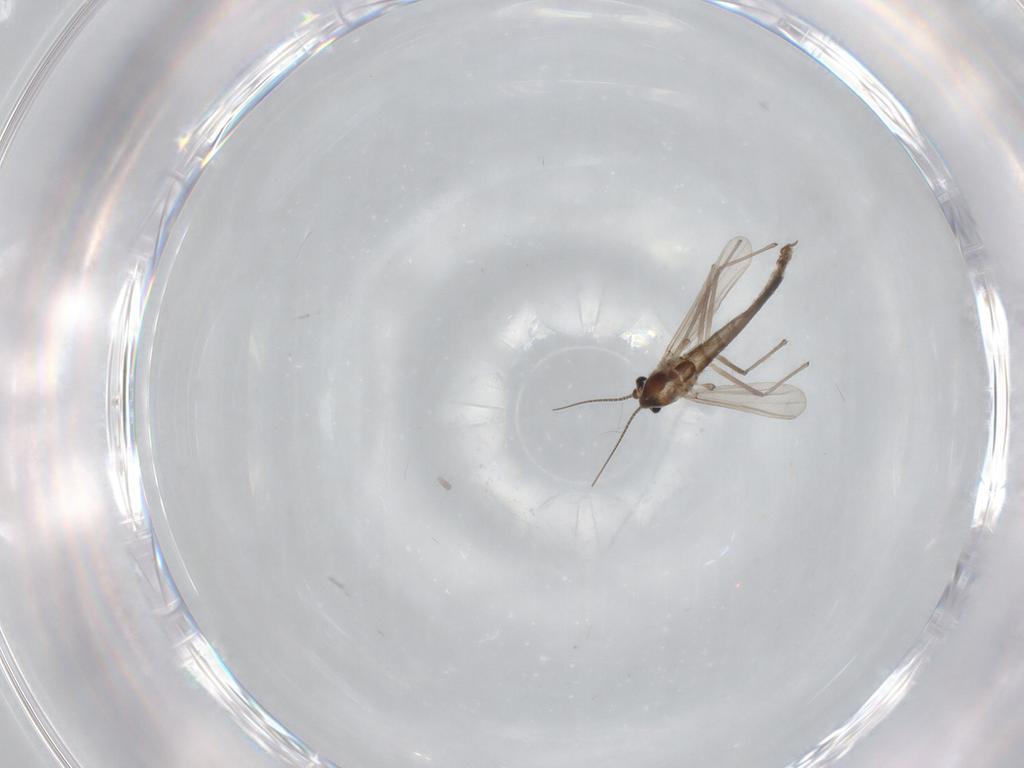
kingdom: Animalia
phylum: Arthropoda
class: Insecta
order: Diptera
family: Chironomidae
